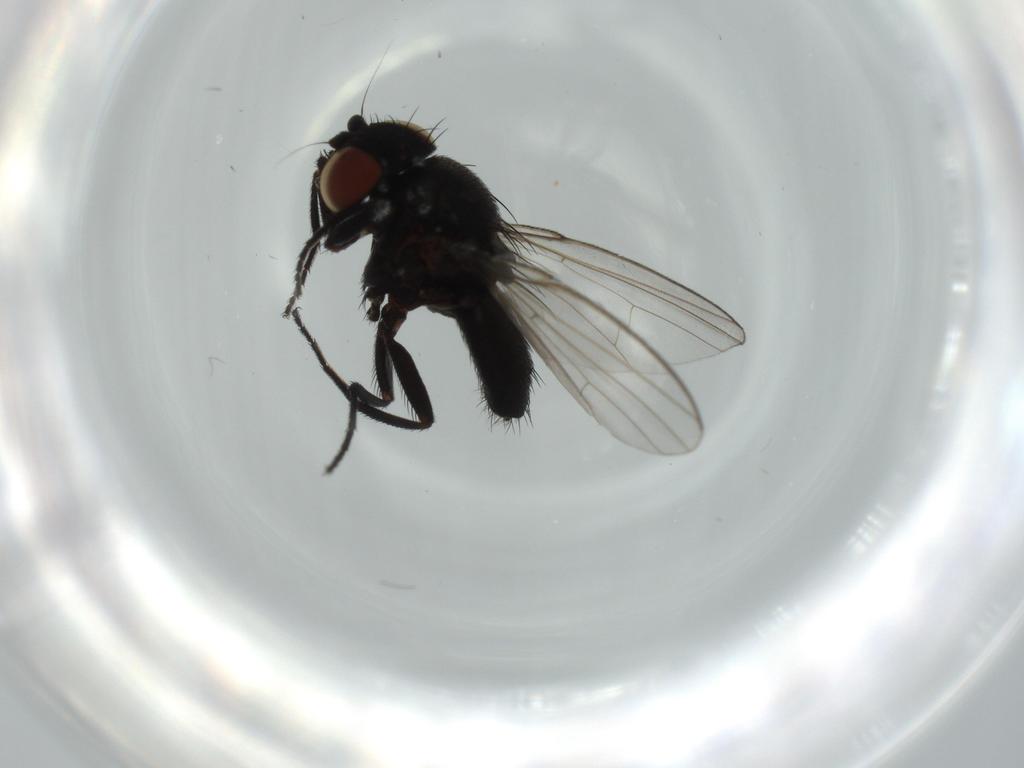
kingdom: Animalia
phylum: Arthropoda
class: Insecta
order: Diptera
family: Milichiidae
